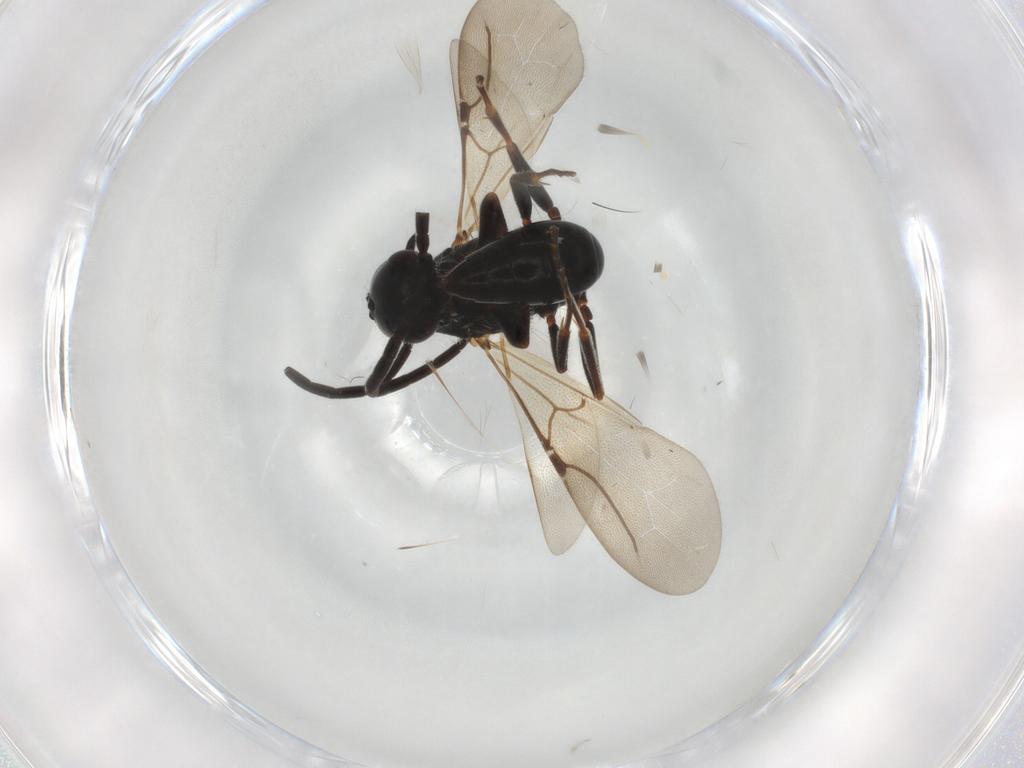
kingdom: Animalia
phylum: Arthropoda
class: Insecta
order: Hymenoptera
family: Bethylidae
